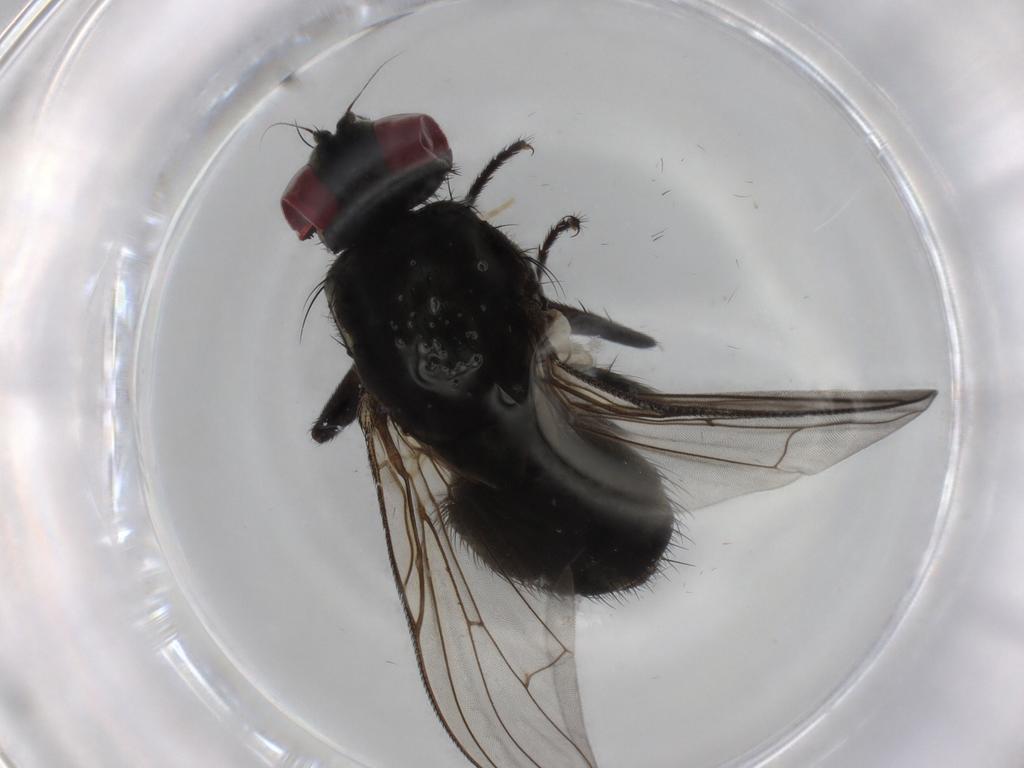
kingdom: Animalia
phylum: Arthropoda
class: Insecta
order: Diptera
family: Muscidae
